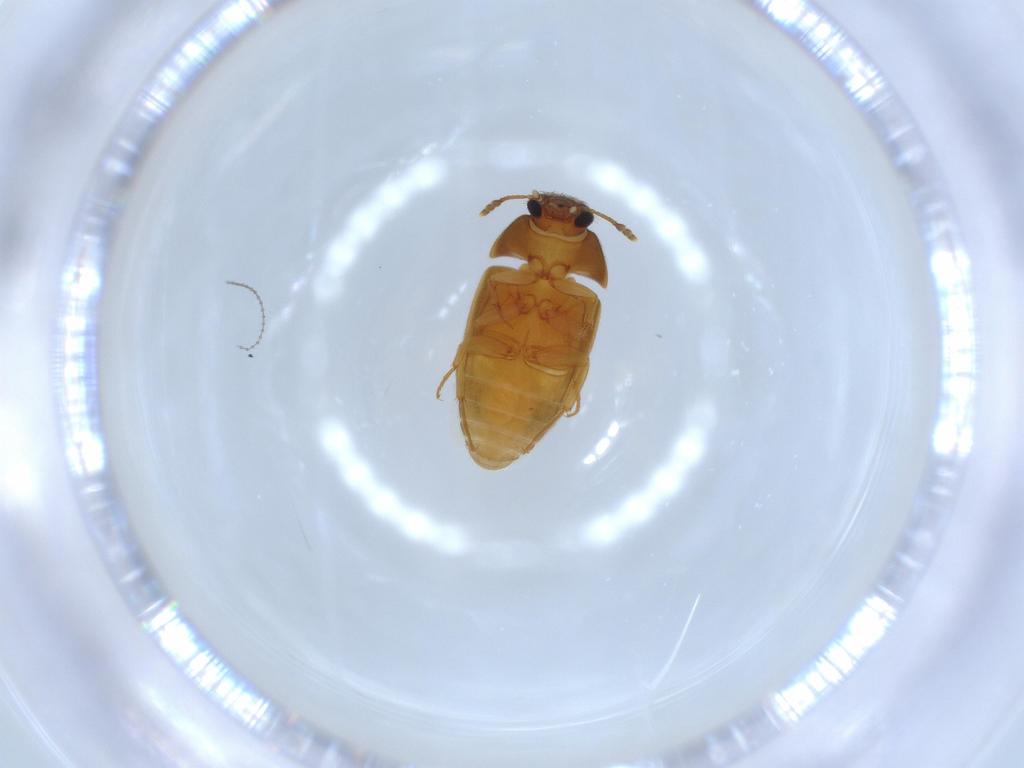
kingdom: Animalia
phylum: Arthropoda
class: Insecta
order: Coleoptera
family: Mycetophagidae
